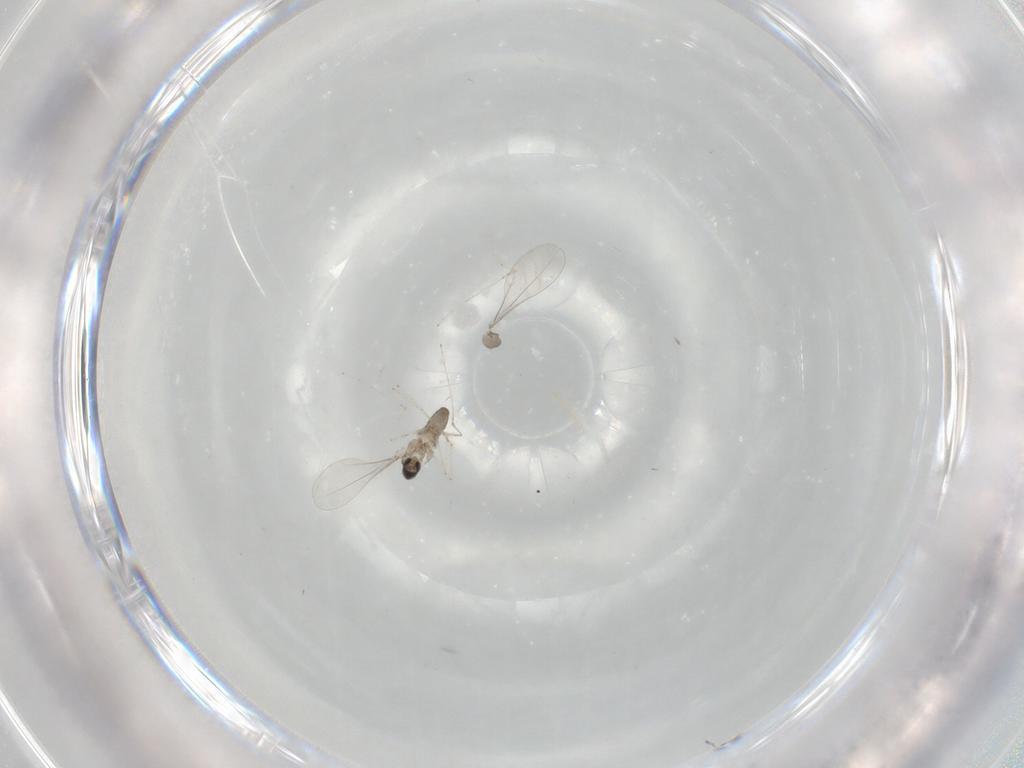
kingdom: Animalia
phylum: Arthropoda
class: Insecta
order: Diptera
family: Cecidomyiidae
